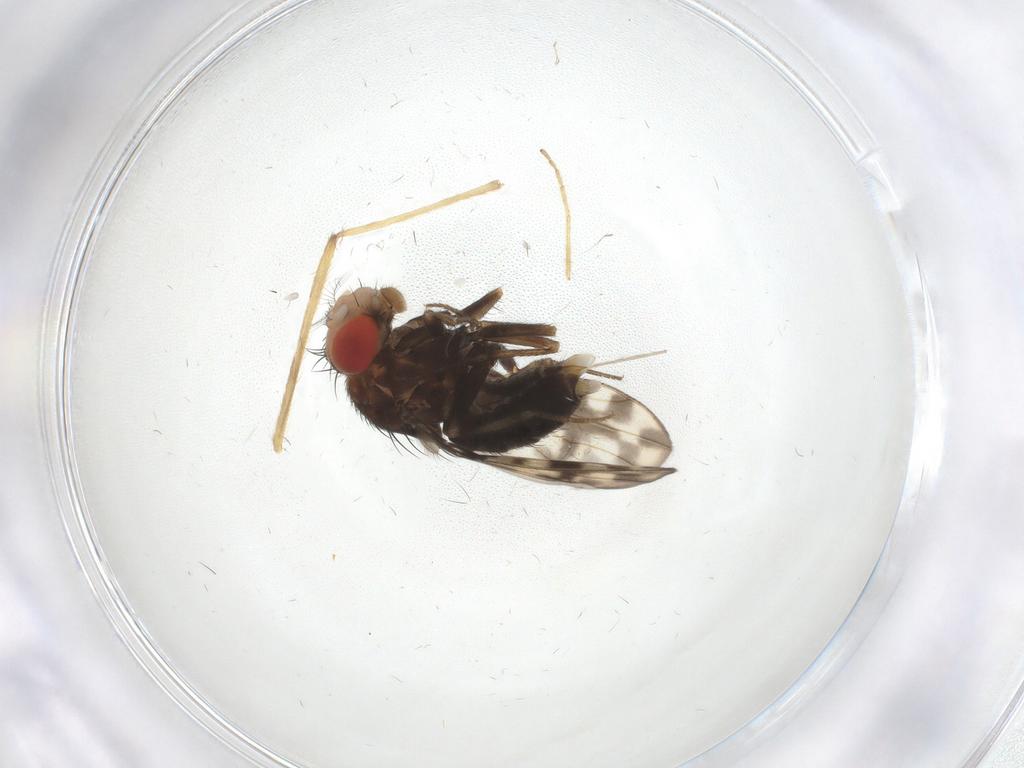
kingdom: Animalia
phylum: Arthropoda
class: Insecta
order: Diptera
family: Drosophilidae
